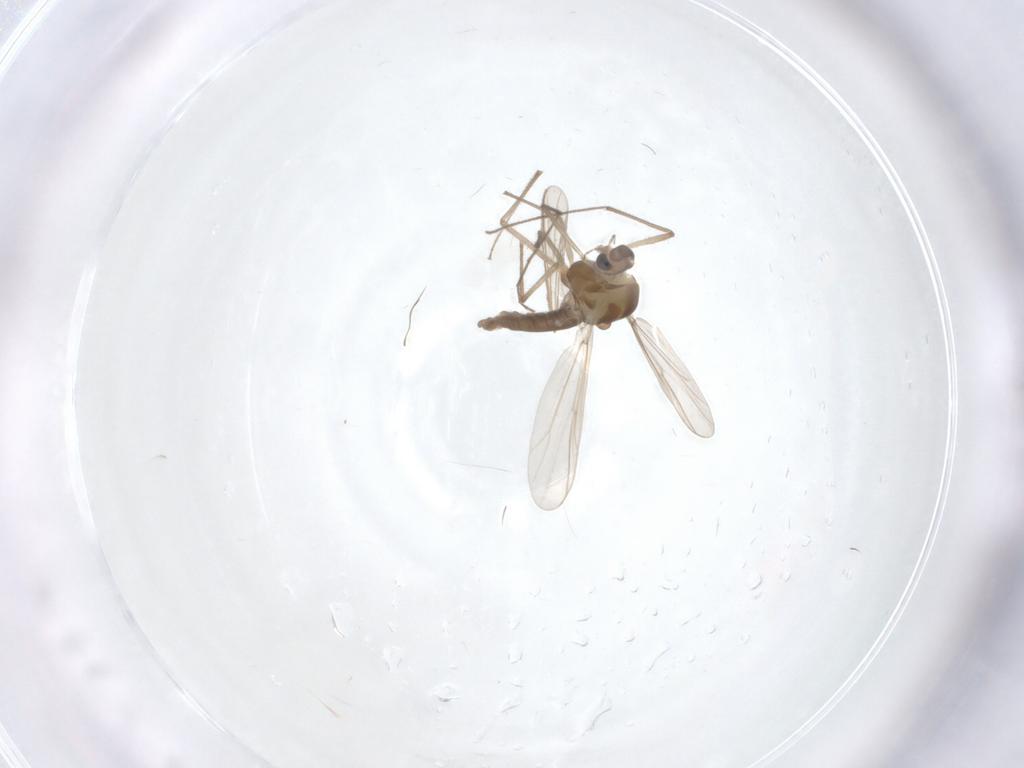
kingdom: Animalia
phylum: Arthropoda
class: Insecta
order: Diptera
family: Chironomidae
